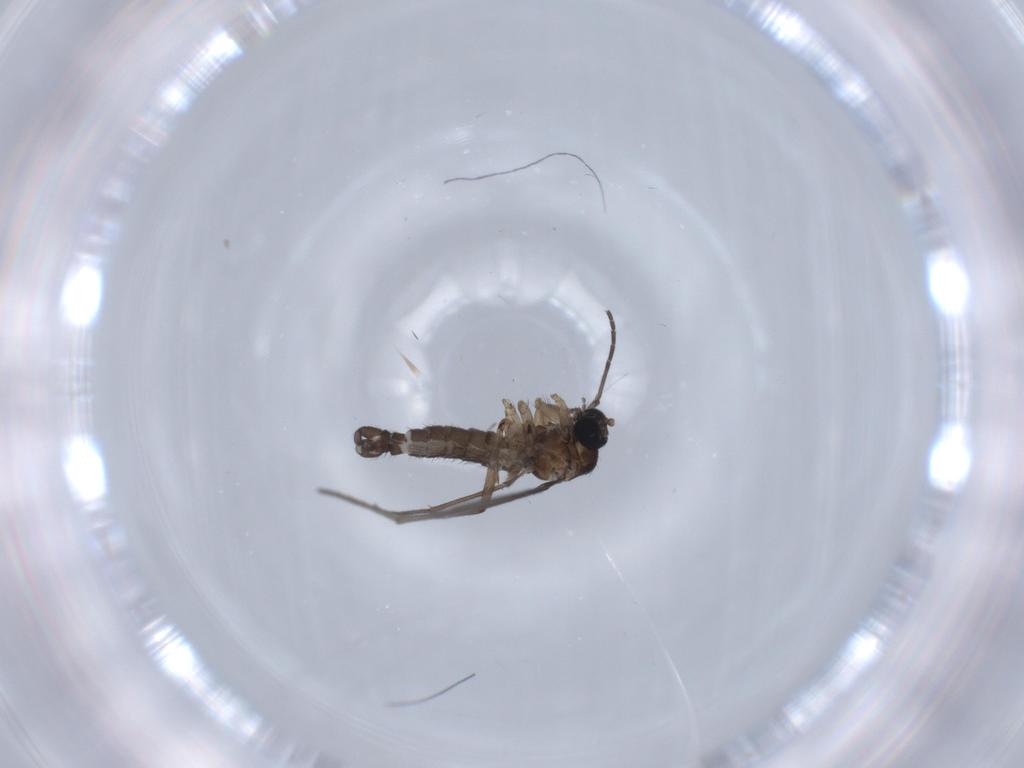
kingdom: Animalia
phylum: Arthropoda
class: Insecta
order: Diptera
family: Sciaridae
